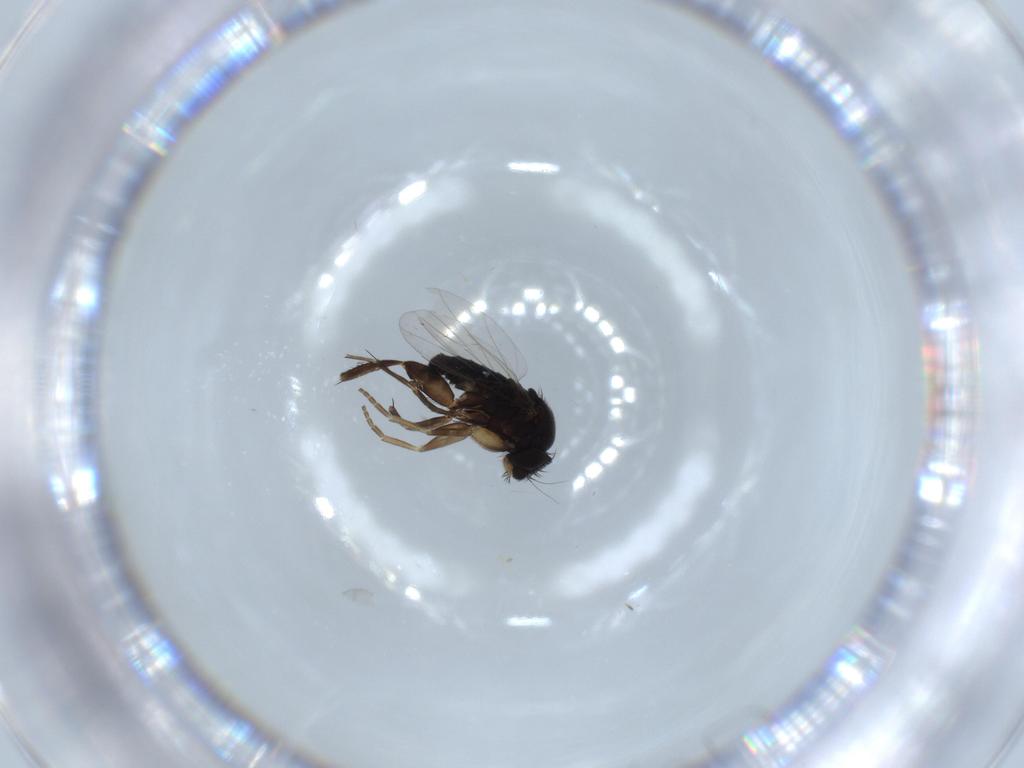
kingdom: Animalia
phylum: Arthropoda
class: Insecta
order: Diptera
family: Phoridae
